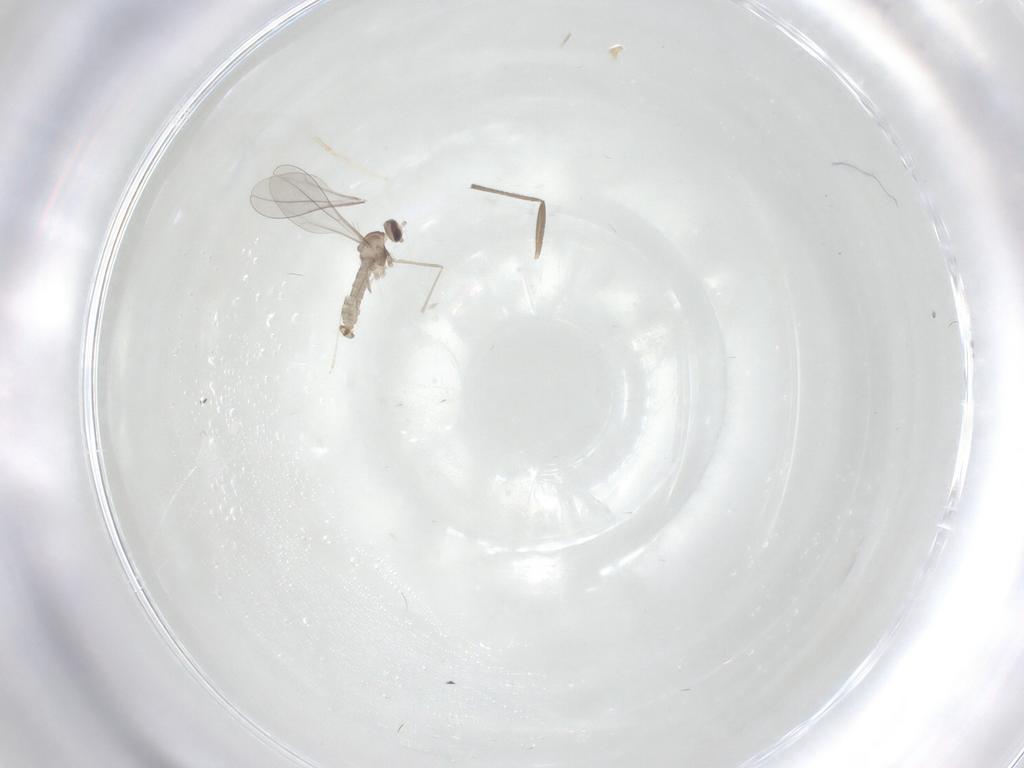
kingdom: Animalia
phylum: Arthropoda
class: Insecta
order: Diptera
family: Cecidomyiidae
